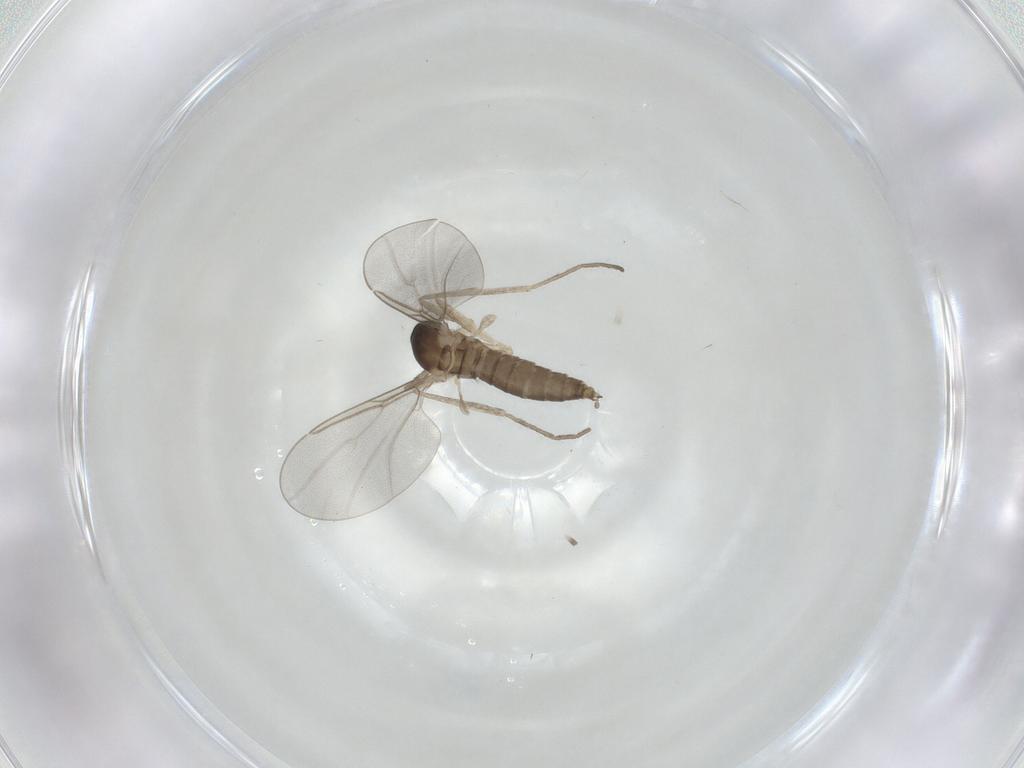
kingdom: Animalia
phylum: Arthropoda
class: Insecta
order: Diptera
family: Cecidomyiidae
